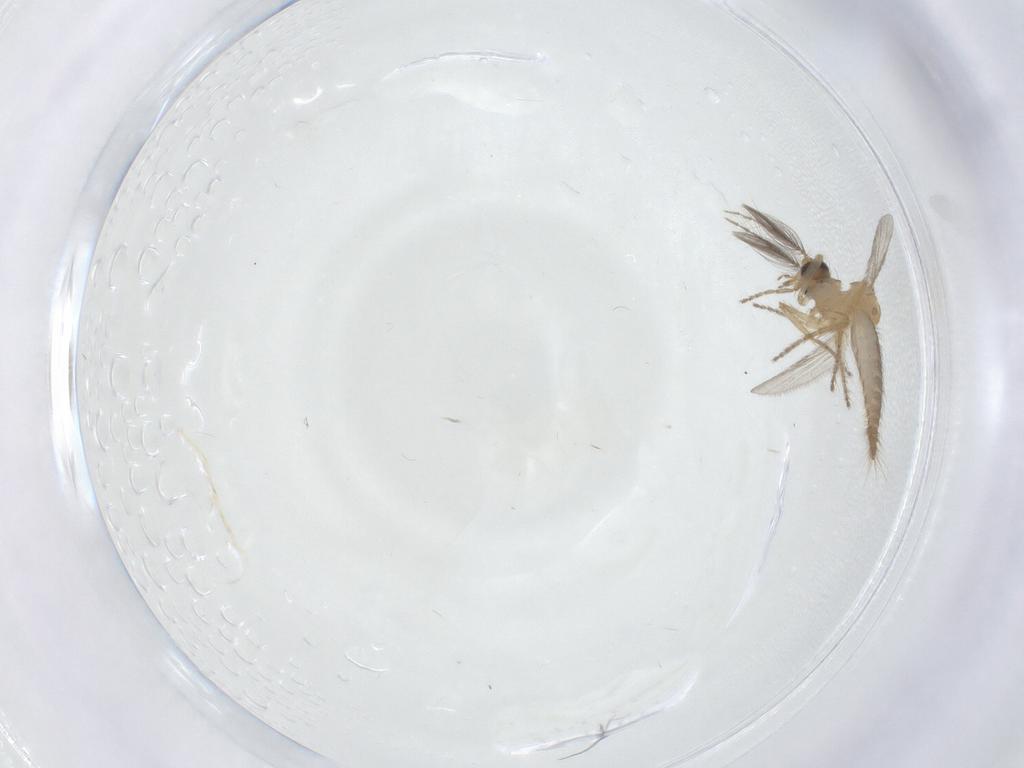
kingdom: Animalia
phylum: Arthropoda
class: Insecta
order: Diptera
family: Ceratopogonidae
